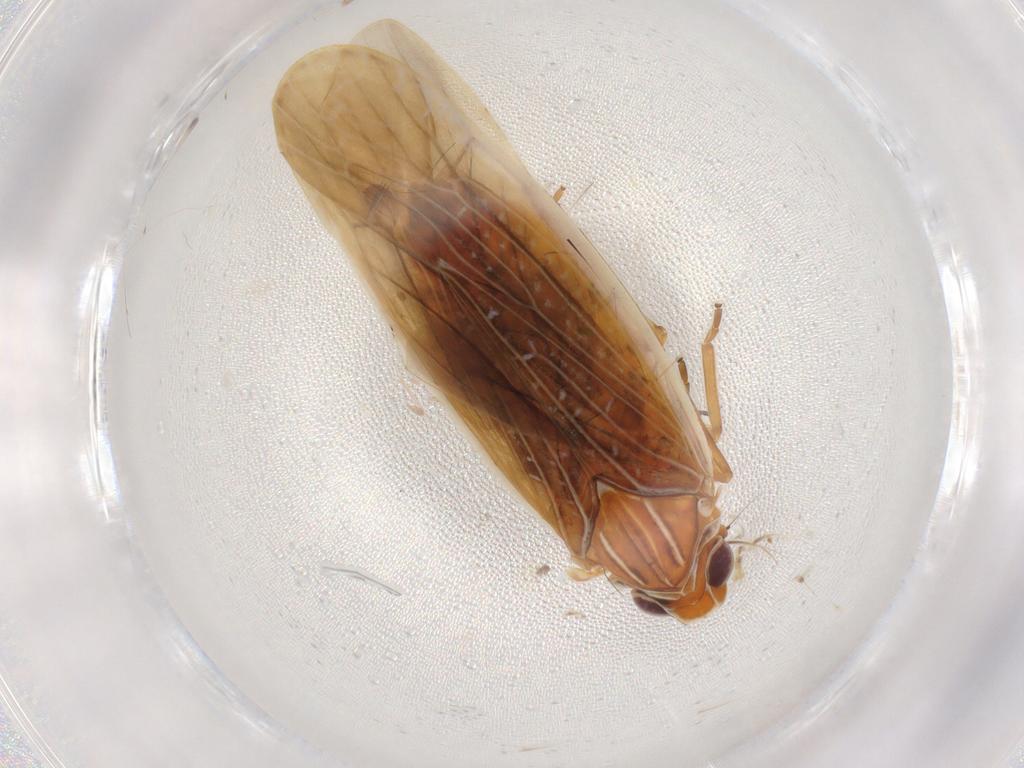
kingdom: Animalia
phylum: Arthropoda
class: Insecta
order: Hemiptera
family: Achilidae
